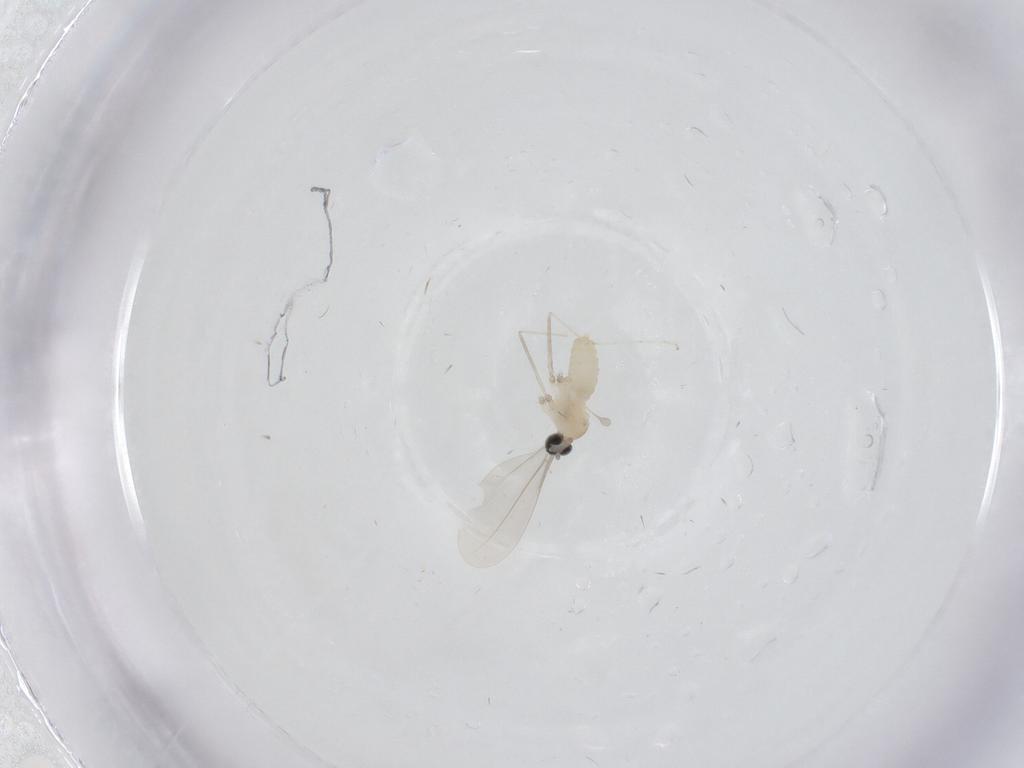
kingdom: Animalia
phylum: Arthropoda
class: Insecta
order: Diptera
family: Cecidomyiidae
